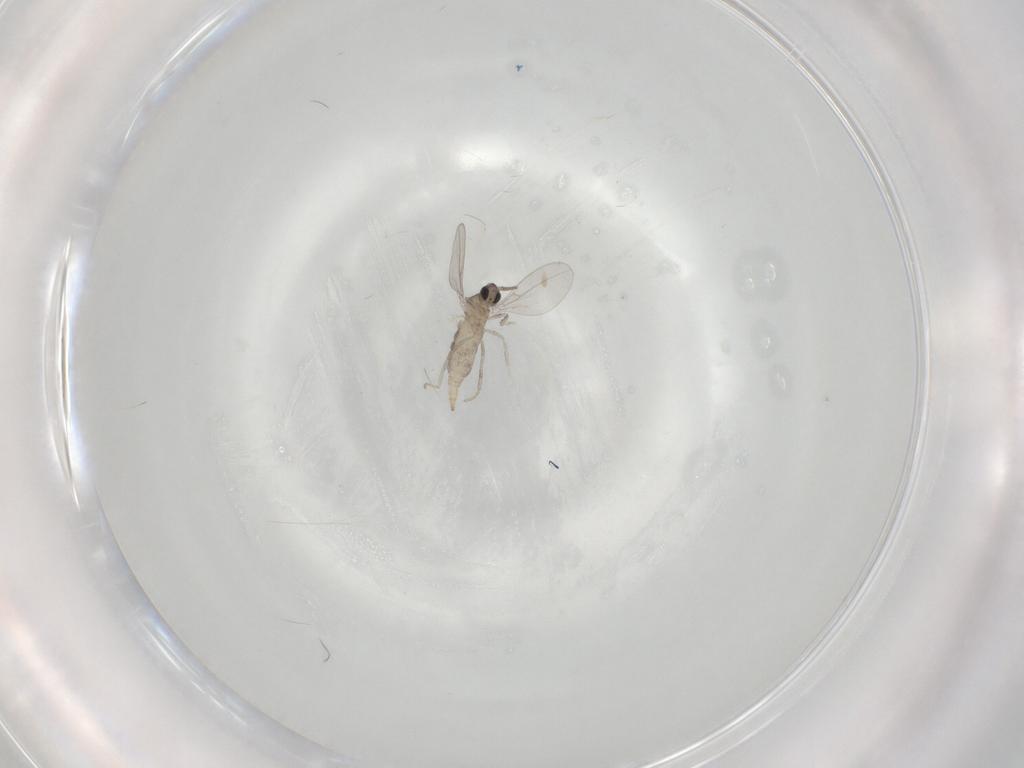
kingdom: Animalia
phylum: Arthropoda
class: Insecta
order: Diptera
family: Cecidomyiidae
